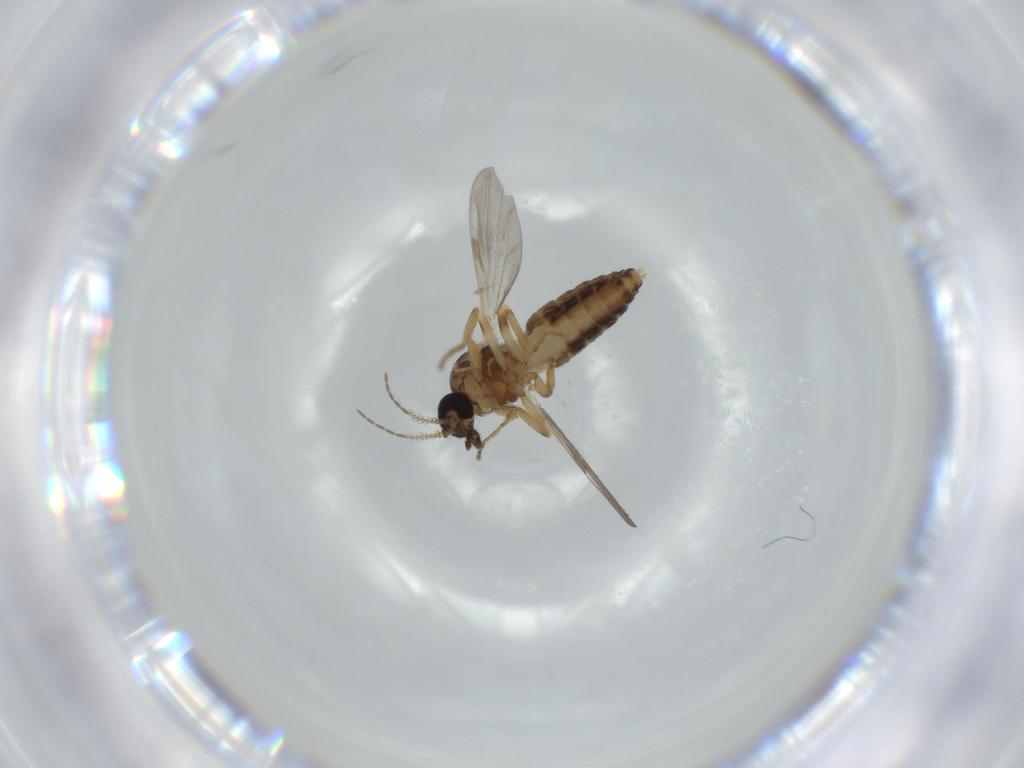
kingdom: Animalia
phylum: Arthropoda
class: Insecta
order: Diptera
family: Ceratopogonidae
